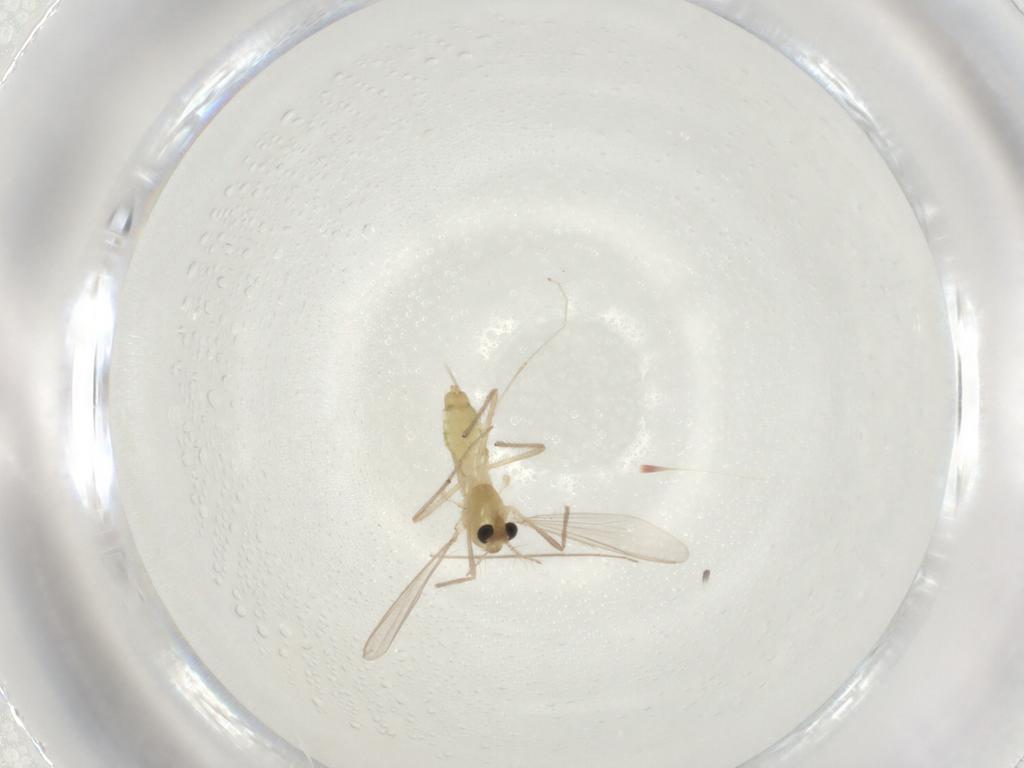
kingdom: Animalia
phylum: Arthropoda
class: Insecta
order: Diptera
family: Chironomidae
